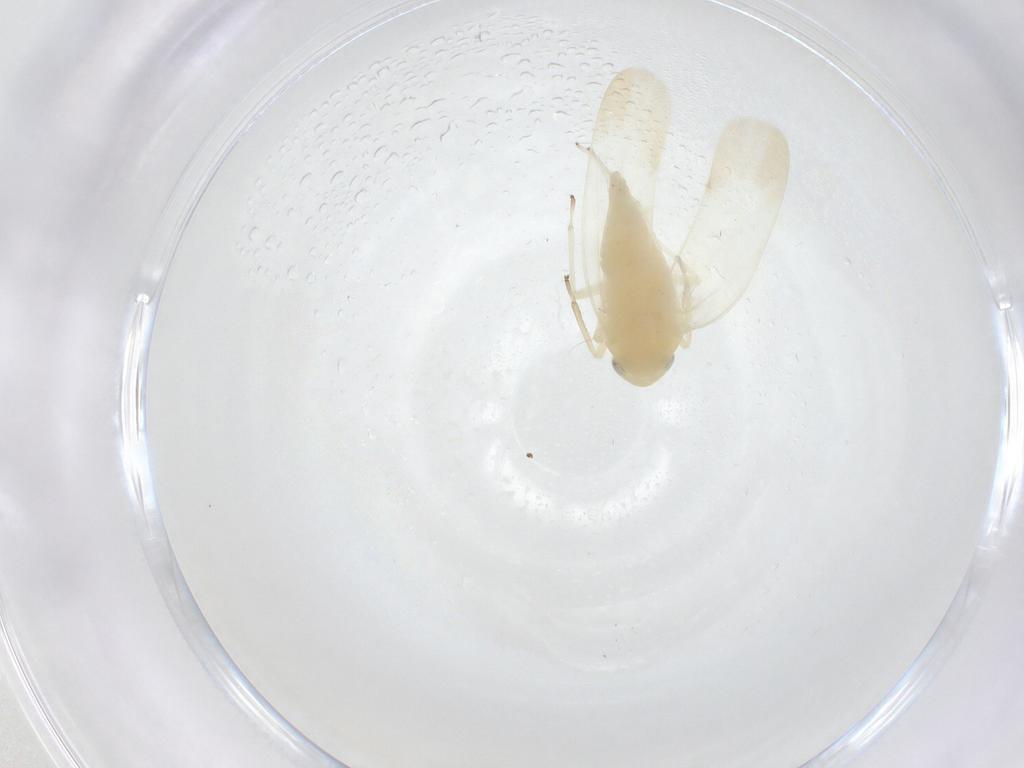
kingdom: Animalia
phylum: Arthropoda
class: Insecta
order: Hemiptera
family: Cicadellidae
